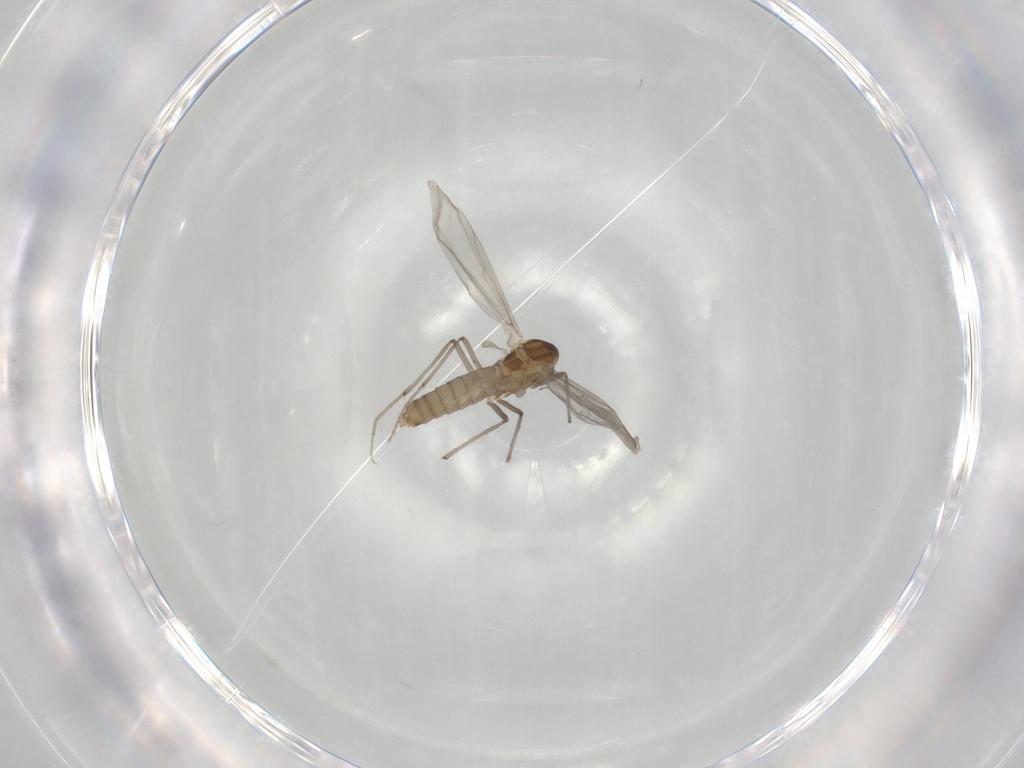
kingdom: Animalia
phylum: Arthropoda
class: Insecta
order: Diptera
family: Chironomidae
